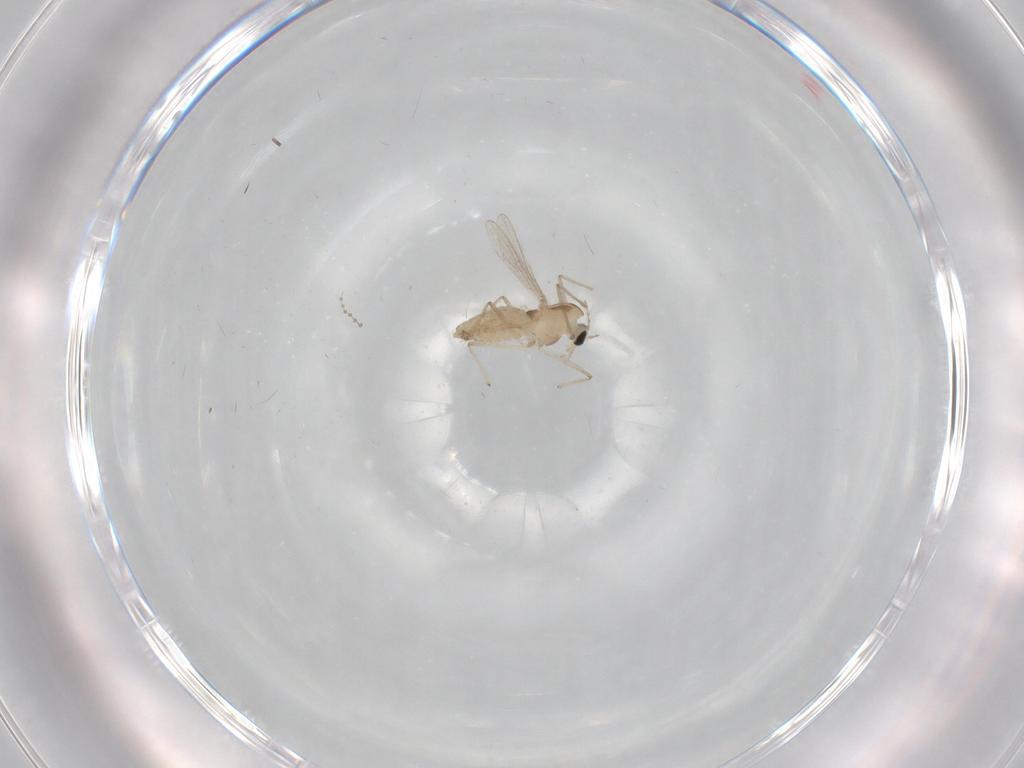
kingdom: Animalia
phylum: Arthropoda
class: Insecta
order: Diptera
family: Cecidomyiidae
